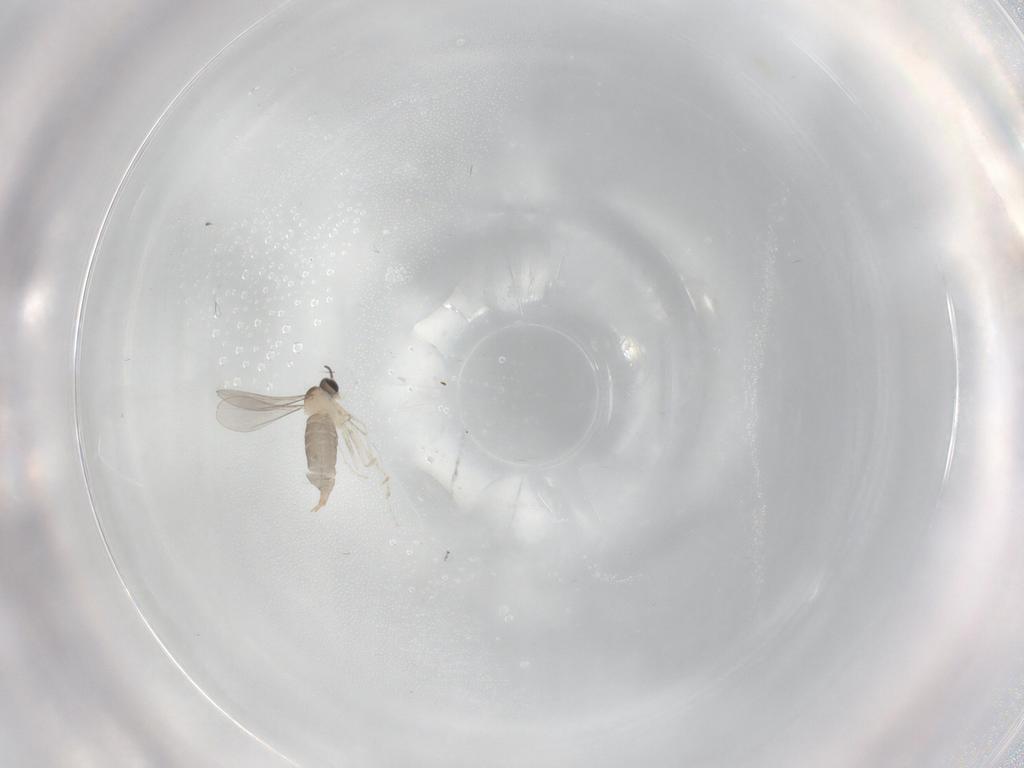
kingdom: Animalia
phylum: Arthropoda
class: Insecta
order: Diptera
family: Cecidomyiidae
